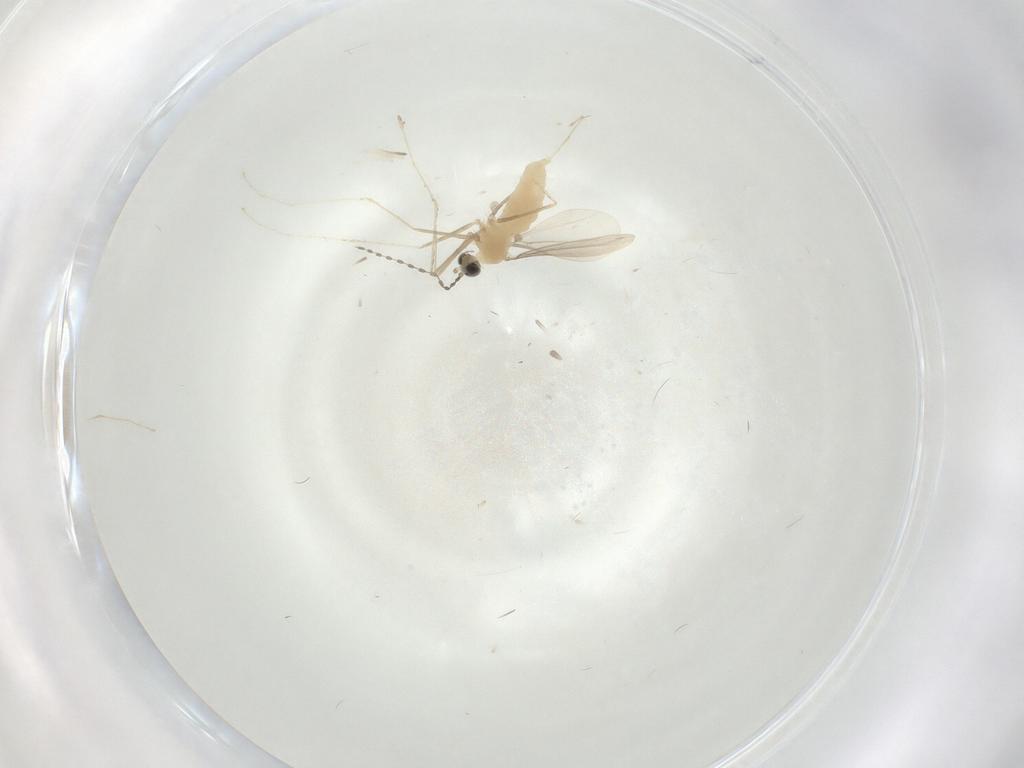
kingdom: Animalia
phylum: Arthropoda
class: Insecta
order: Diptera
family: Cecidomyiidae
